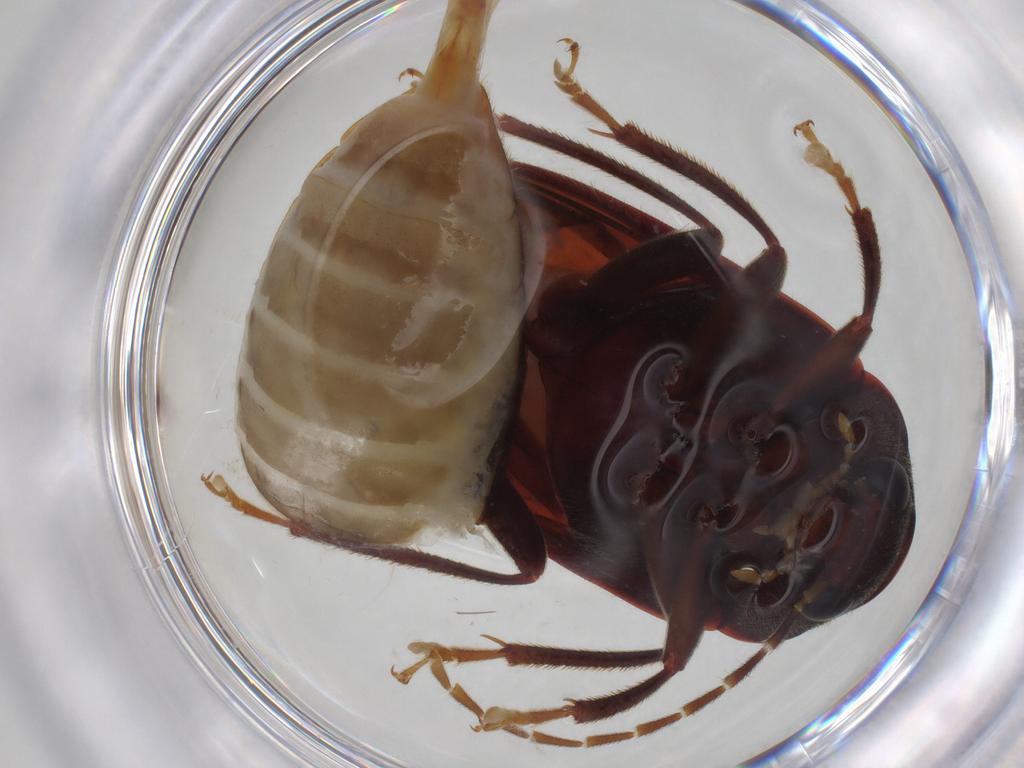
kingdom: Animalia
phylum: Arthropoda
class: Insecta
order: Coleoptera
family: Ptilodactylidae
